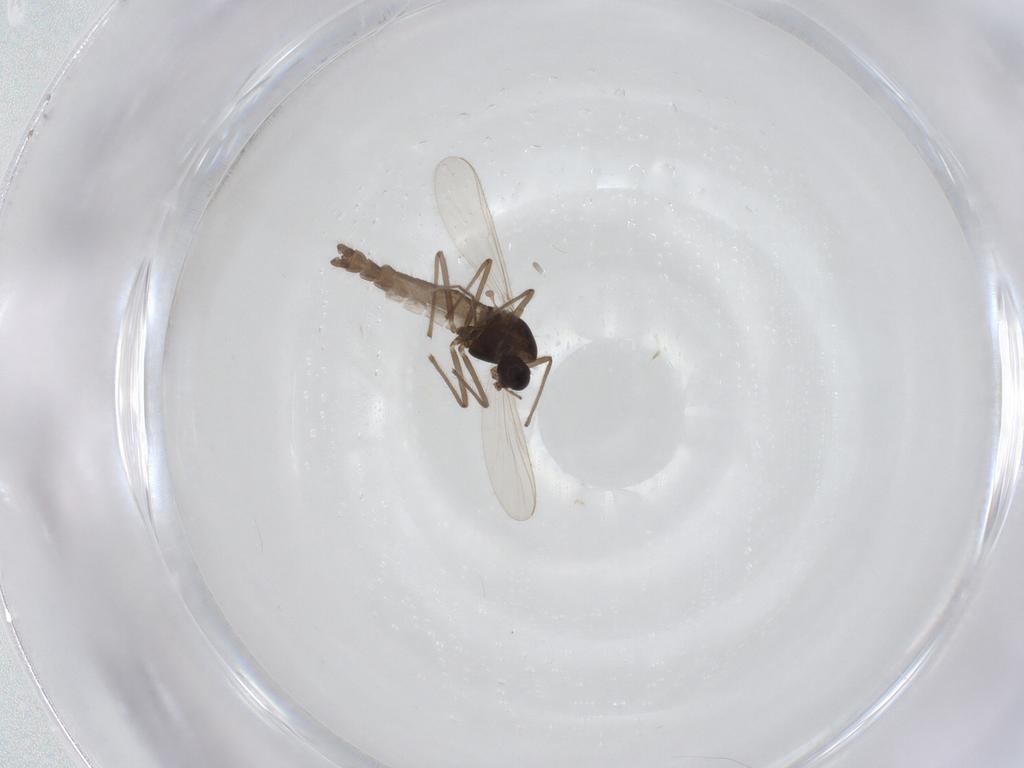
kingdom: Animalia
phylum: Arthropoda
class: Insecta
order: Diptera
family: Chironomidae
